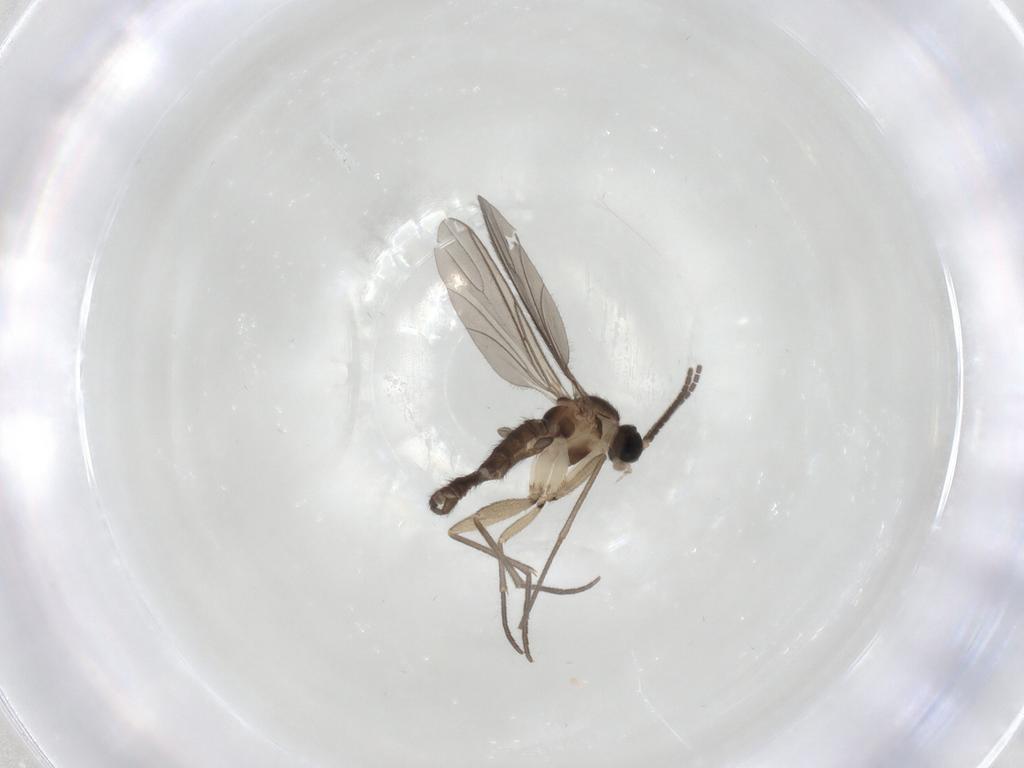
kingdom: Animalia
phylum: Arthropoda
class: Insecta
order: Diptera
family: Sciaridae
